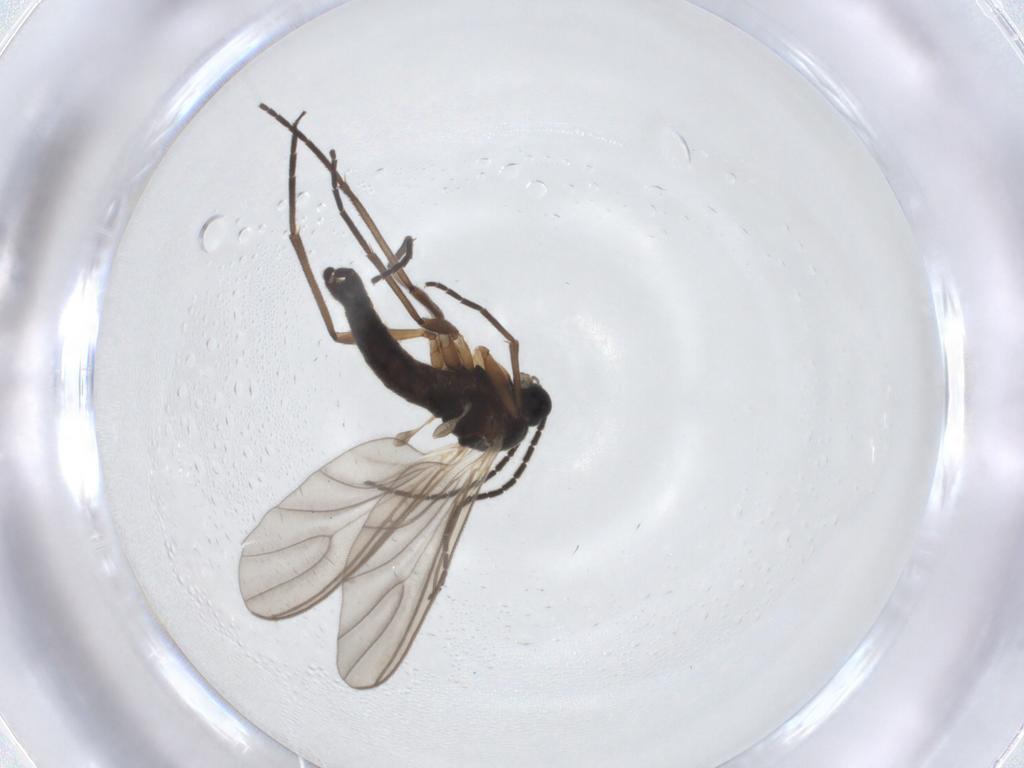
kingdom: Animalia
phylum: Arthropoda
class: Insecta
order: Diptera
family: Sciaridae
